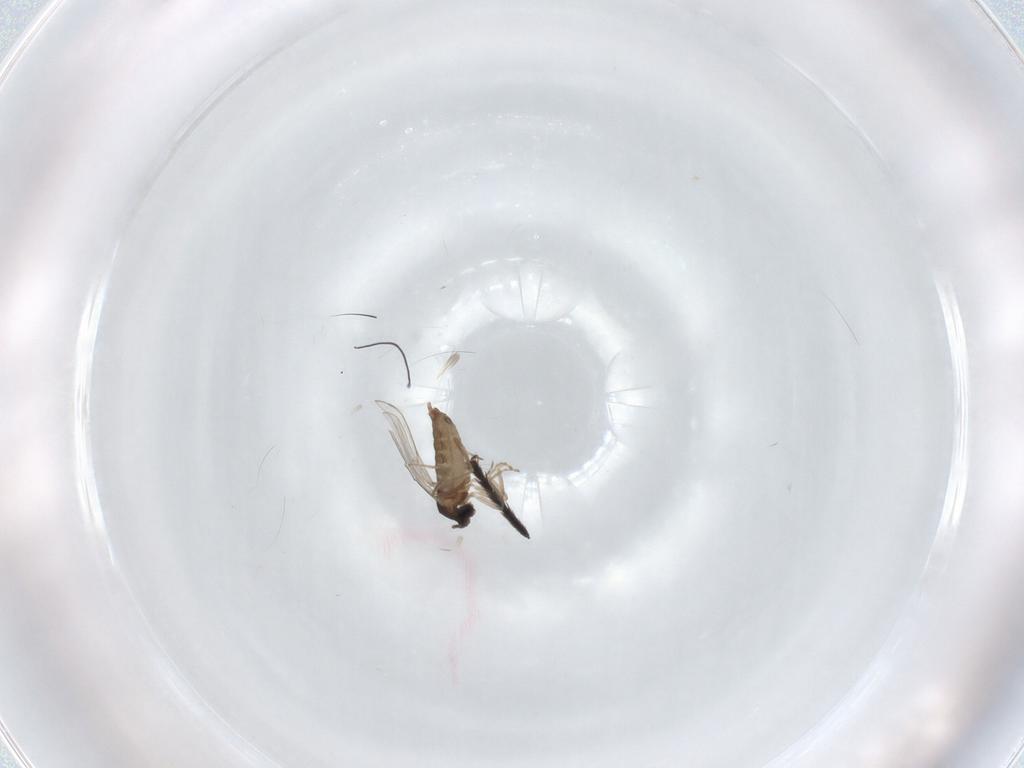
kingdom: Animalia
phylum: Arthropoda
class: Insecta
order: Diptera
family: Cecidomyiidae
